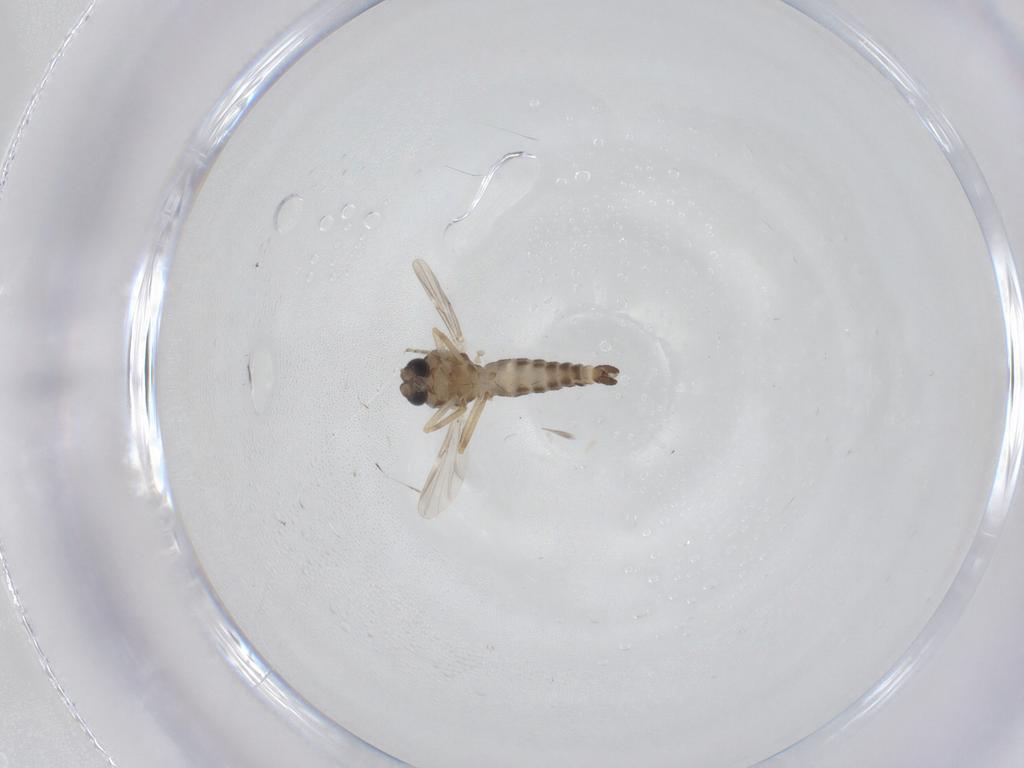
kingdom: Animalia
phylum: Arthropoda
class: Insecta
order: Diptera
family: Ceratopogonidae
